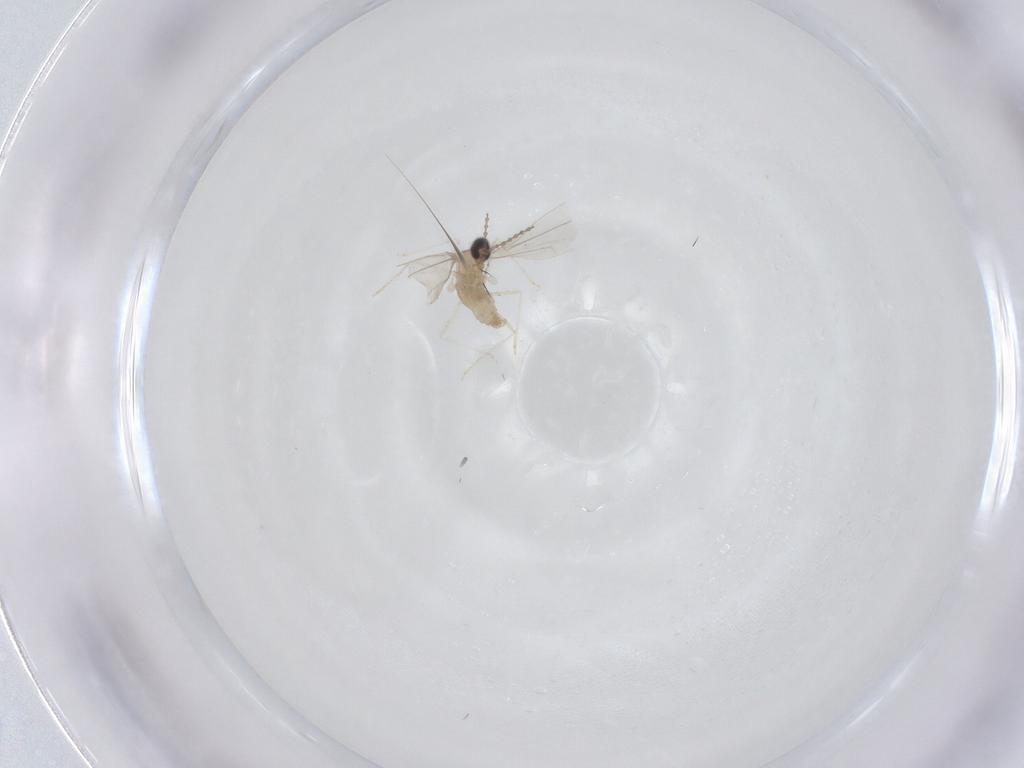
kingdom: Animalia
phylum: Arthropoda
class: Insecta
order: Diptera
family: Cecidomyiidae
